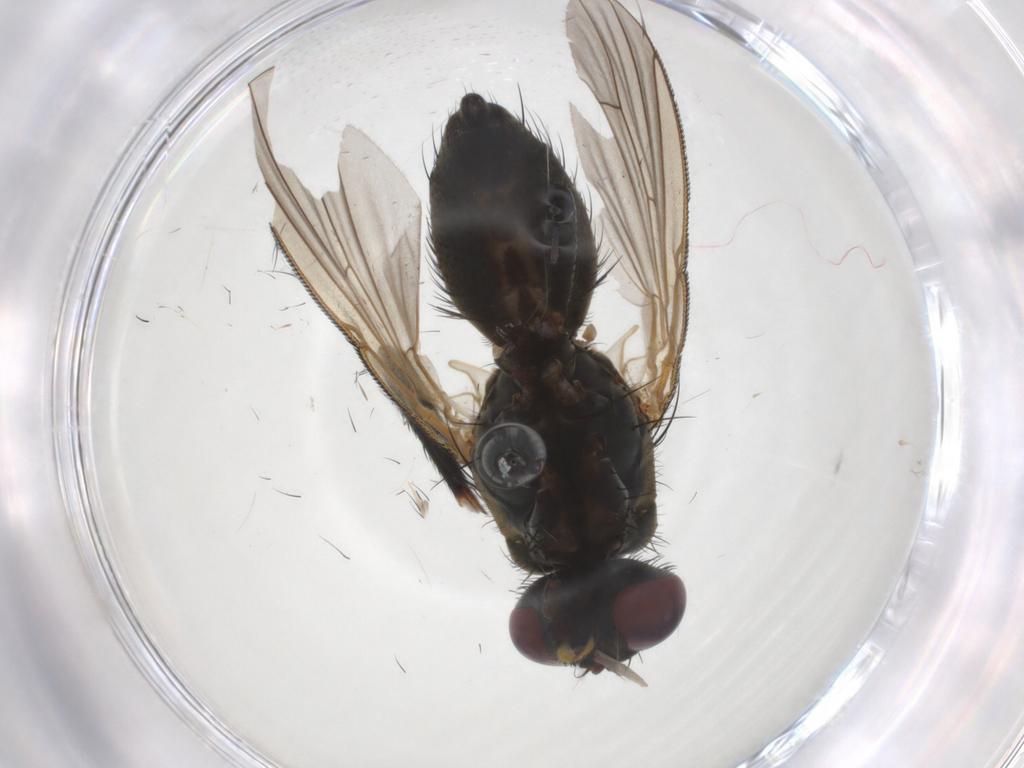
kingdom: Animalia
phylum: Arthropoda
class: Insecta
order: Diptera
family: Muscidae
